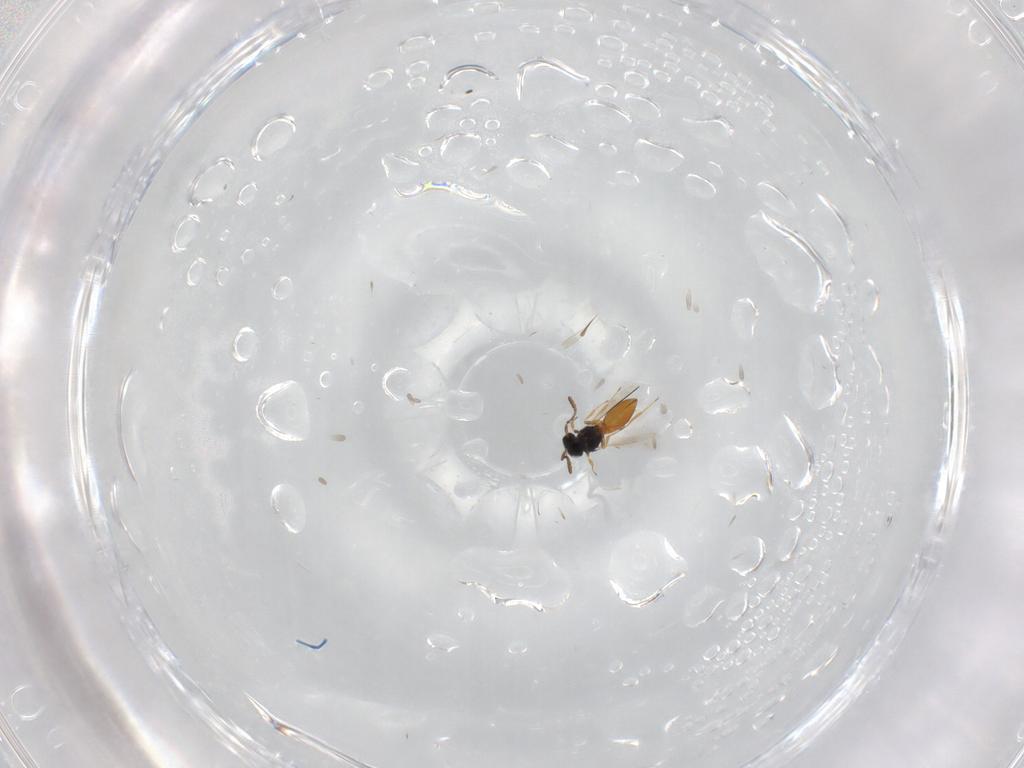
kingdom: Animalia
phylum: Arthropoda
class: Insecta
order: Hymenoptera
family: Scelionidae
